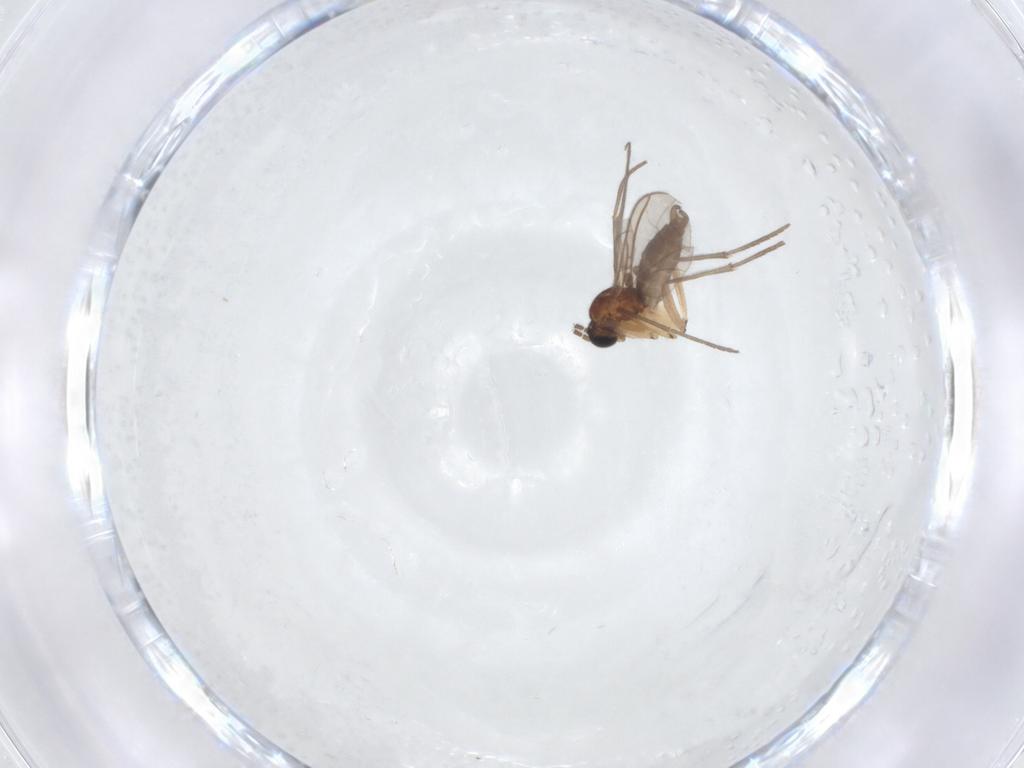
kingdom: Animalia
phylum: Arthropoda
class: Insecta
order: Diptera
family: Sciaridae
